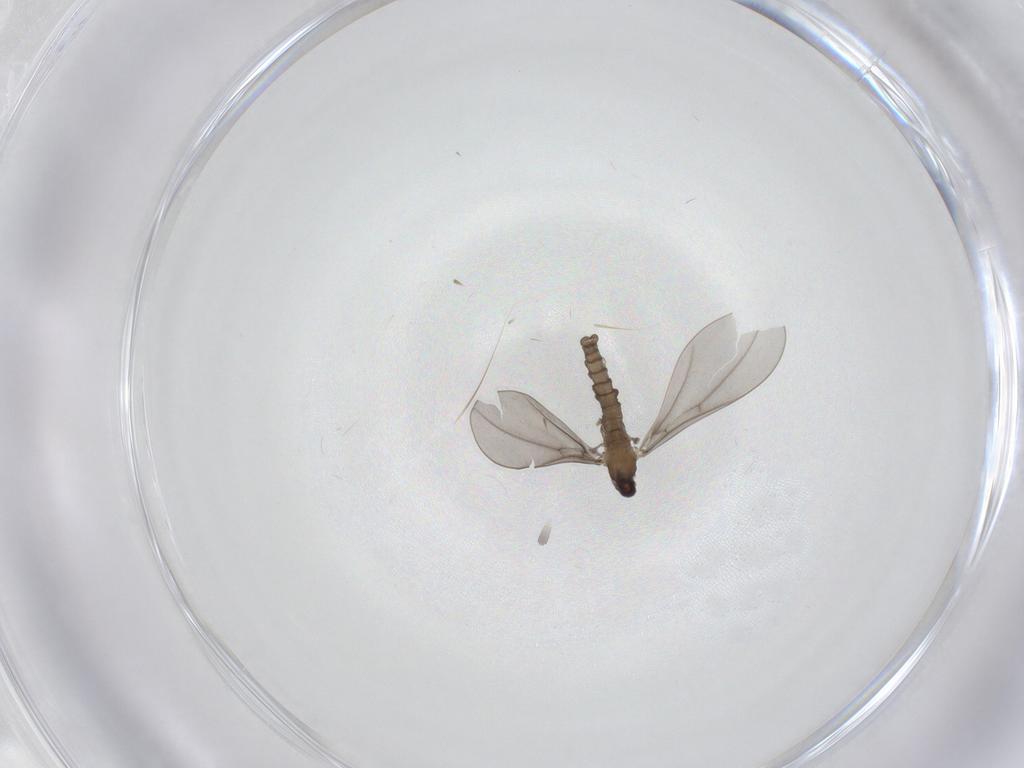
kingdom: Animalia
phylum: Arthropoda
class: Insecta
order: Diptera
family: Cecidomyiidae
